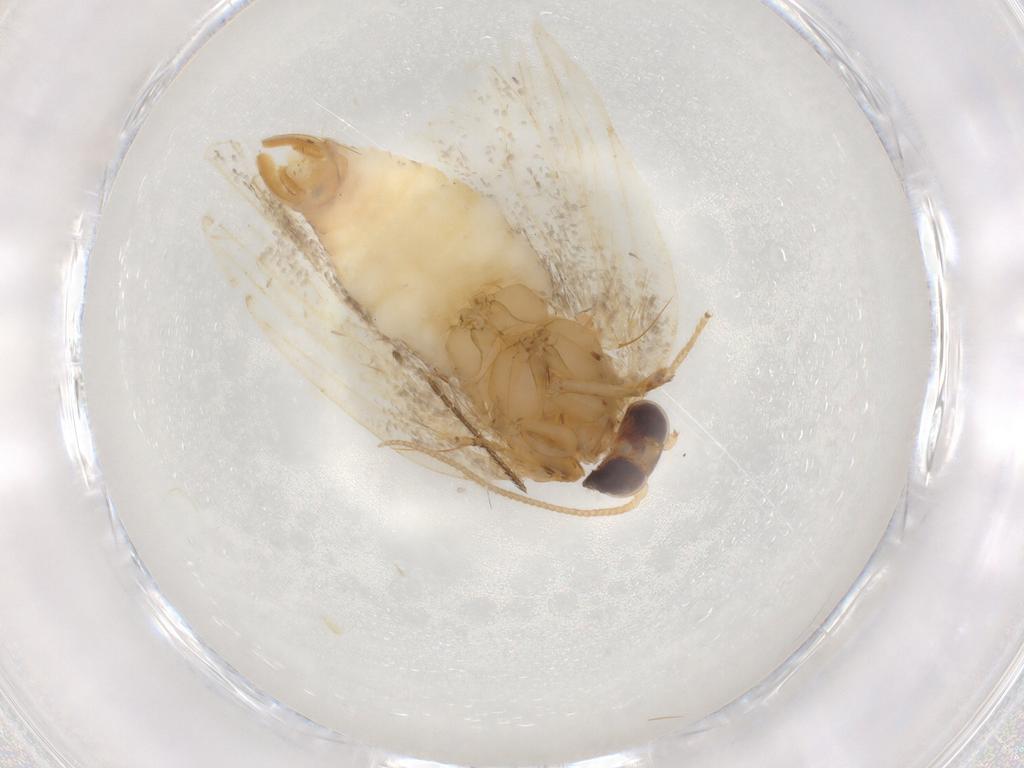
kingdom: Animalia
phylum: Arthropoda
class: Insecta
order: Lepidoptera
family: Tortricidae
